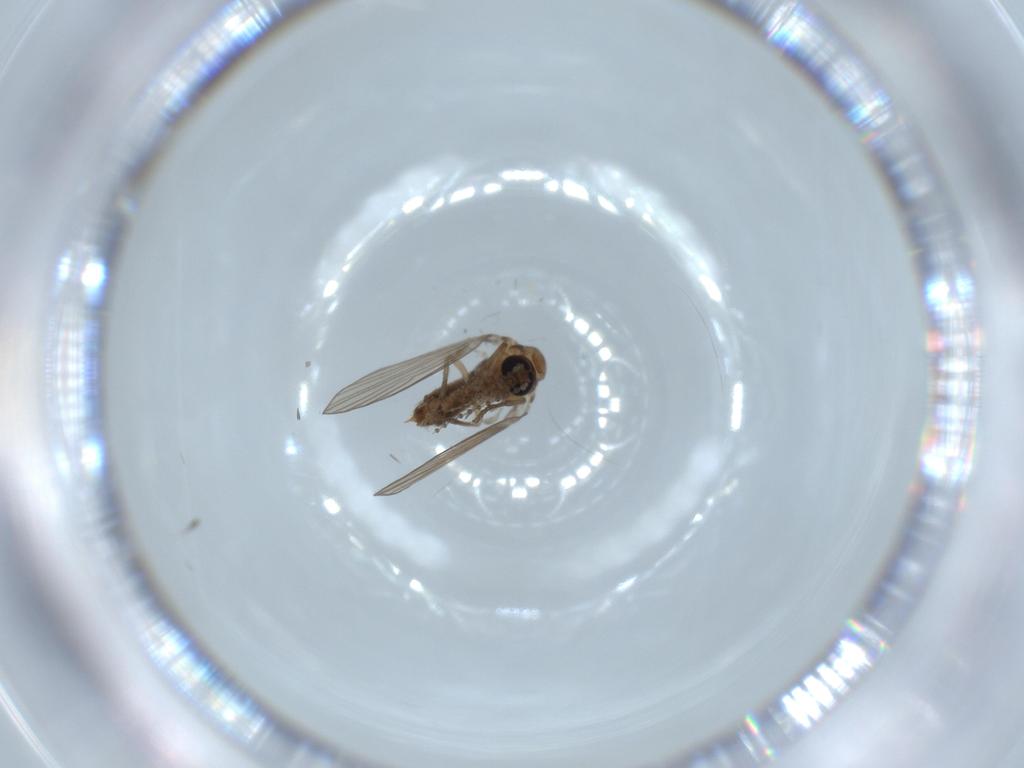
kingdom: Animalia
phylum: Arthropoda
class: Insecta
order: Diptera
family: Psychodidae
